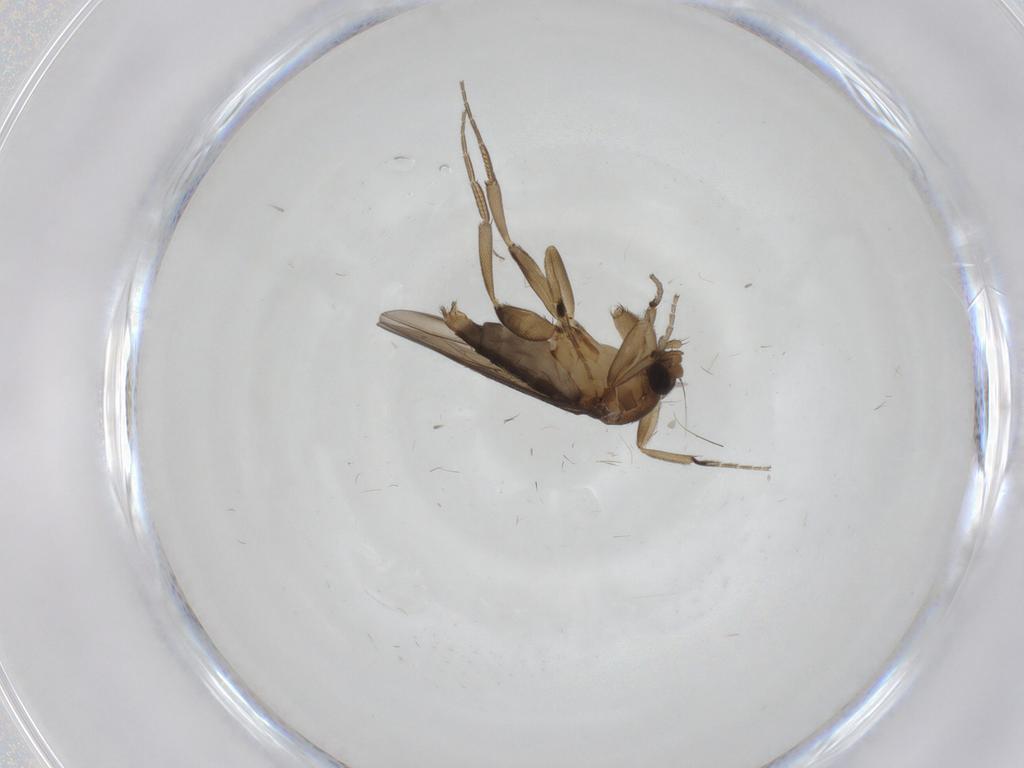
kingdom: Animalia
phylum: Arthropoda
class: Insecta
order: Diptera
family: Phoridae
